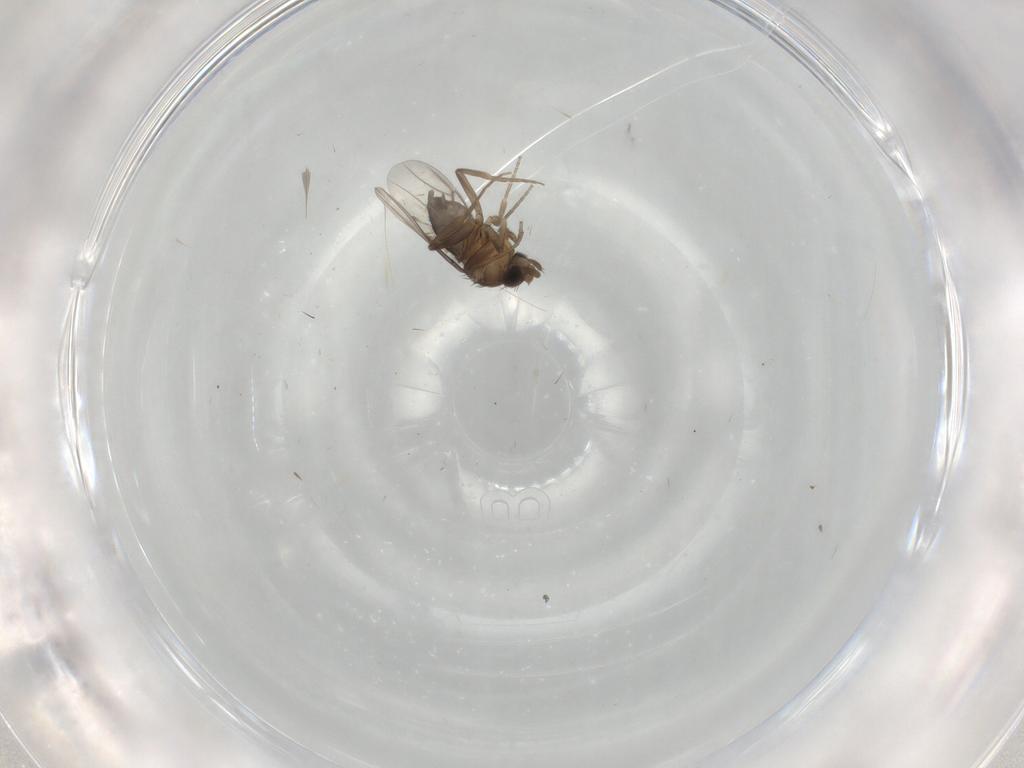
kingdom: Animalia
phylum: Arthropoda
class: Insecta
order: Diptera
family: Phoridae
